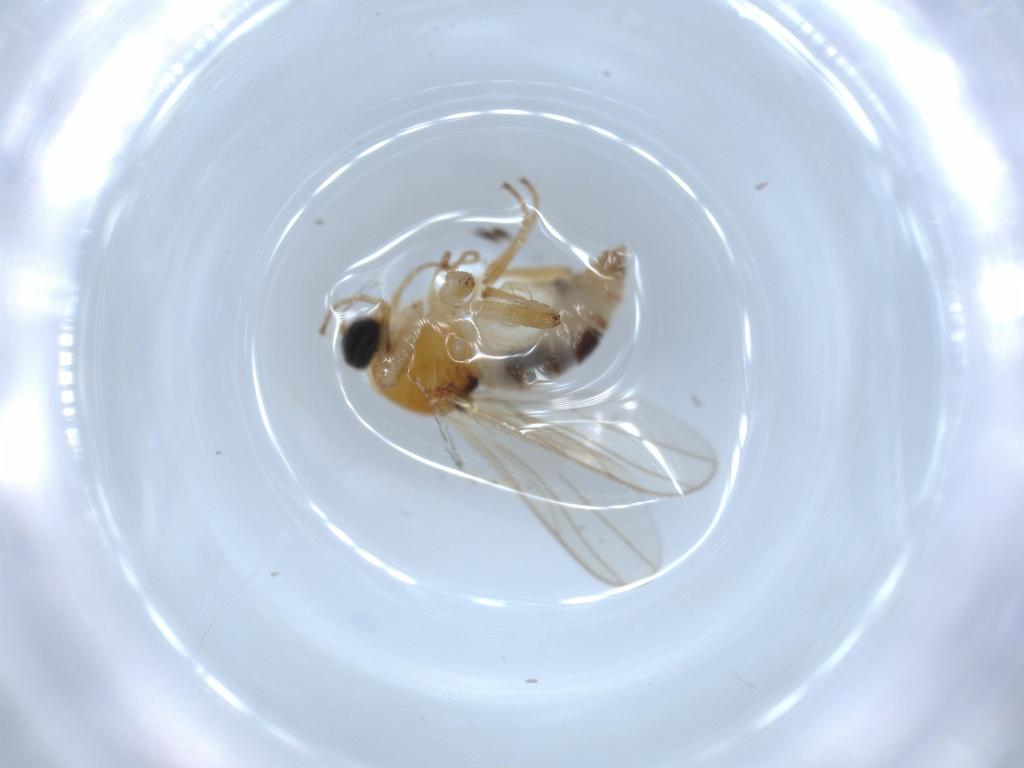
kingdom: Animalia
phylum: Arthropoda
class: Insecta
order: Diptera
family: Hybotidae
